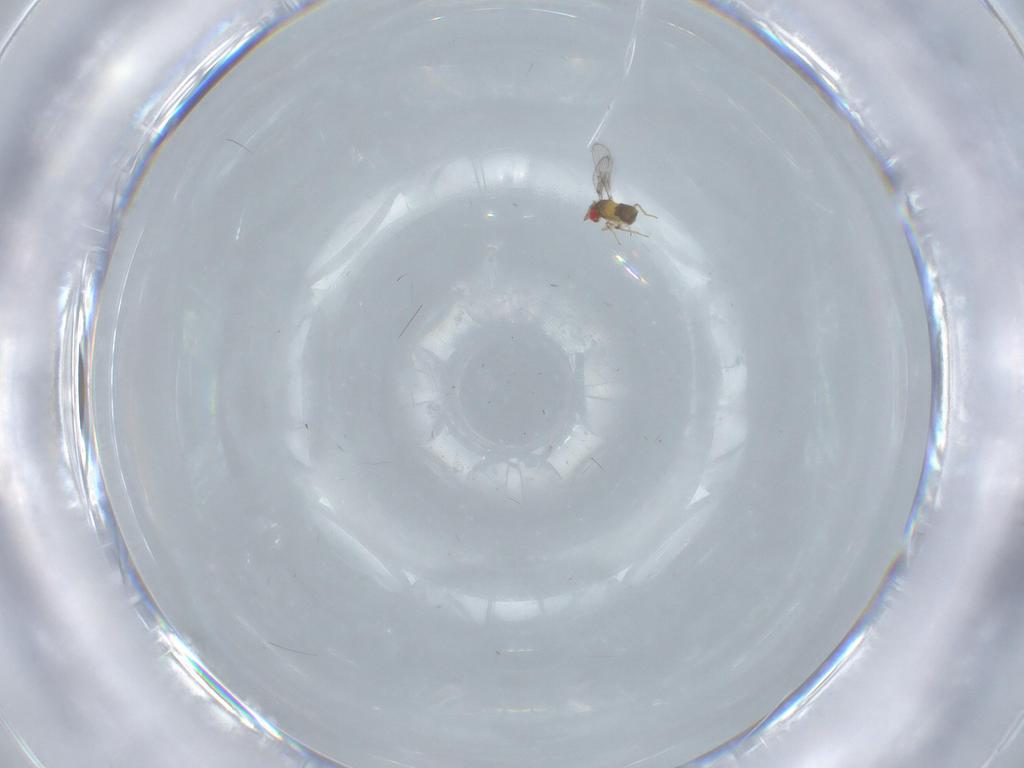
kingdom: Animalia
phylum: Arthropoda
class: Insecta
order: Hymenoptera
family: Trichogrammatidae
